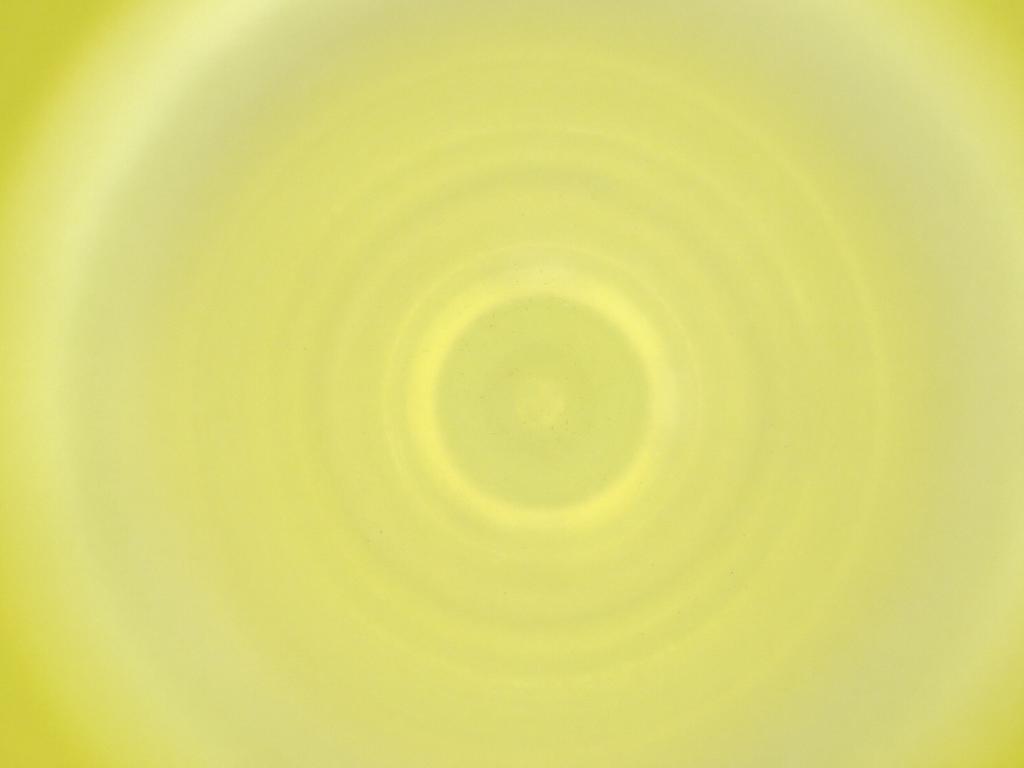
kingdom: Animalia
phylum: Arthropoda
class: Insecta
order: Diptera
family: Cecidomyiidae
